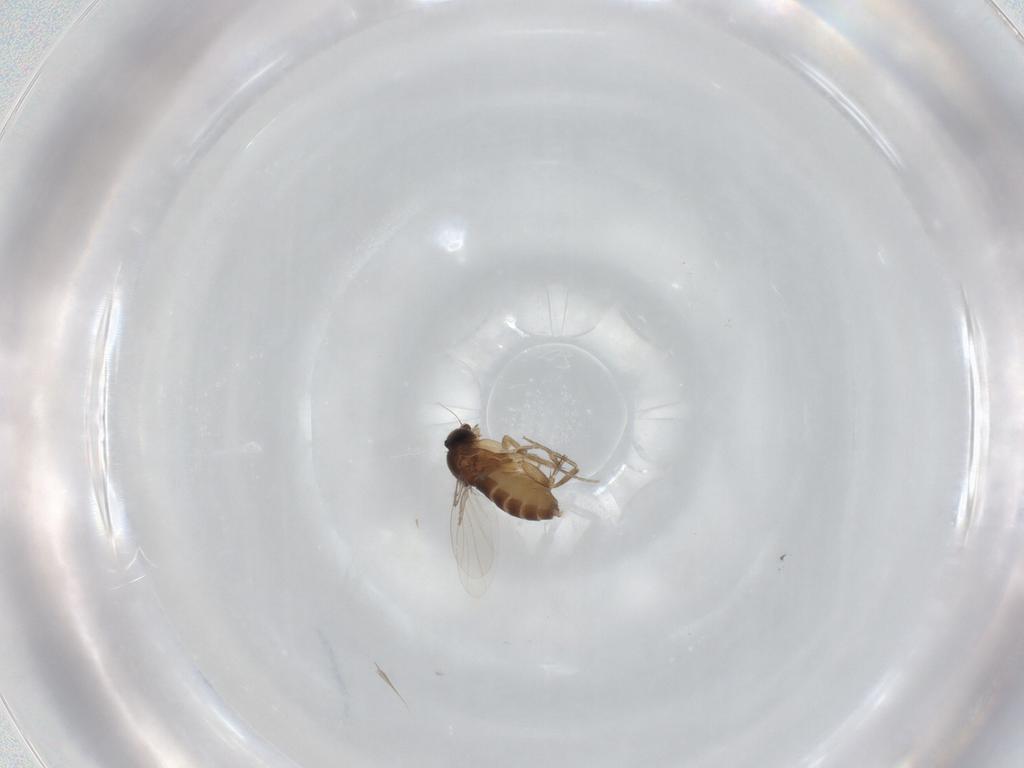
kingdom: Animalia
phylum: Arthropoda
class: Insecta
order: Diptera
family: Phoridae
